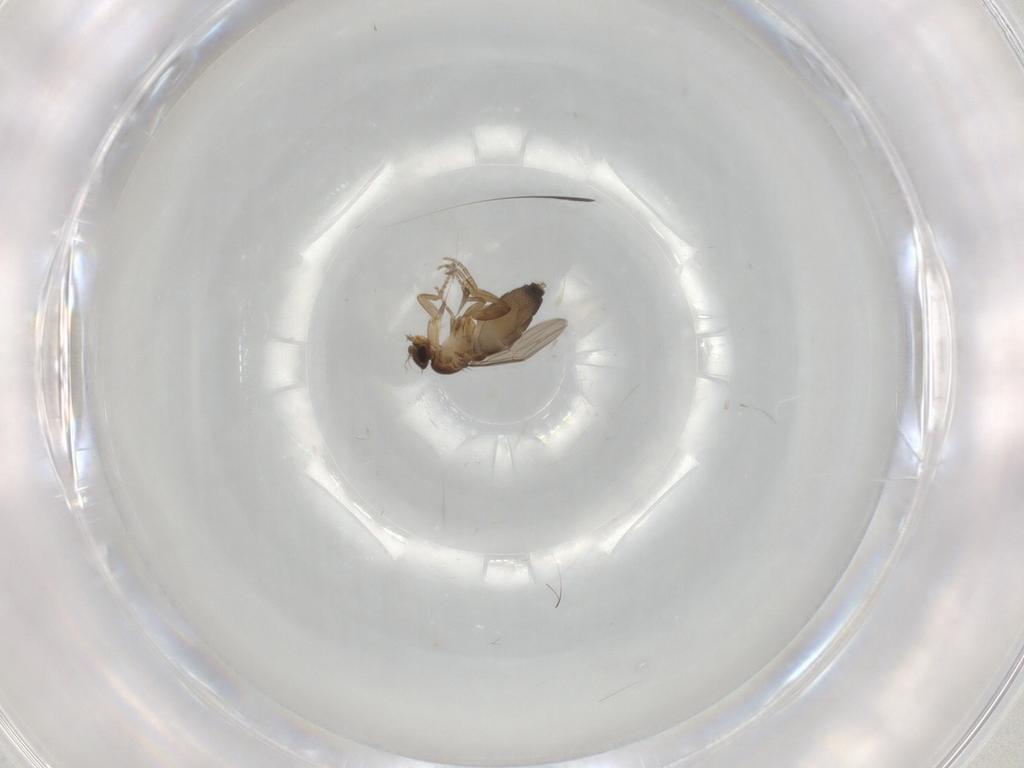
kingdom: Animalia
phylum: Arthropoda
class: Insecta
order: Diptera
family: Phoridae
